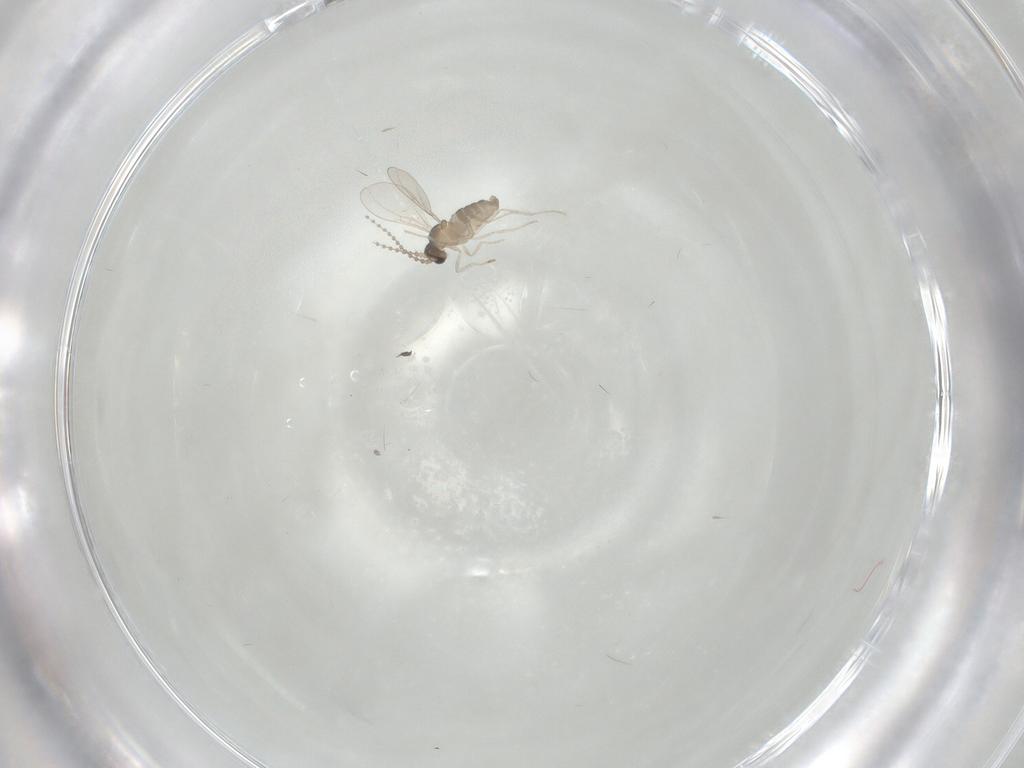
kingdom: Animalia
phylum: Arthropoda
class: Insecta
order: Diptera
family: Cecidomyiidae
